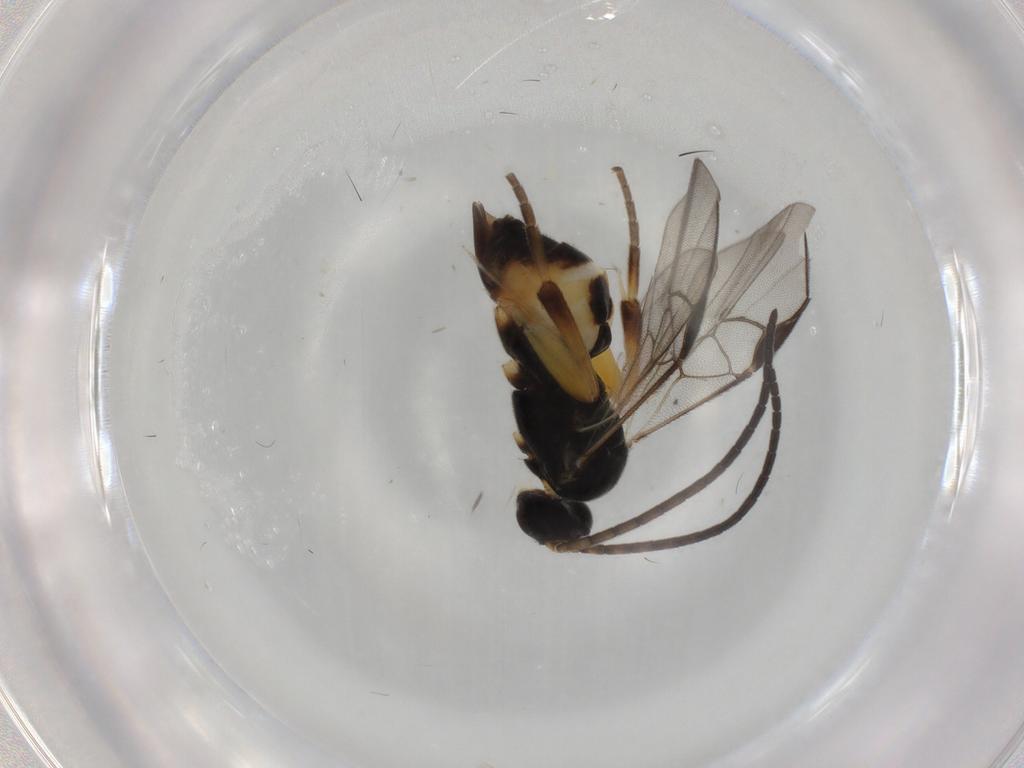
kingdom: Animalia
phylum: Arthropoda
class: Insecta
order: Hymenoptera
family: Braconidae
